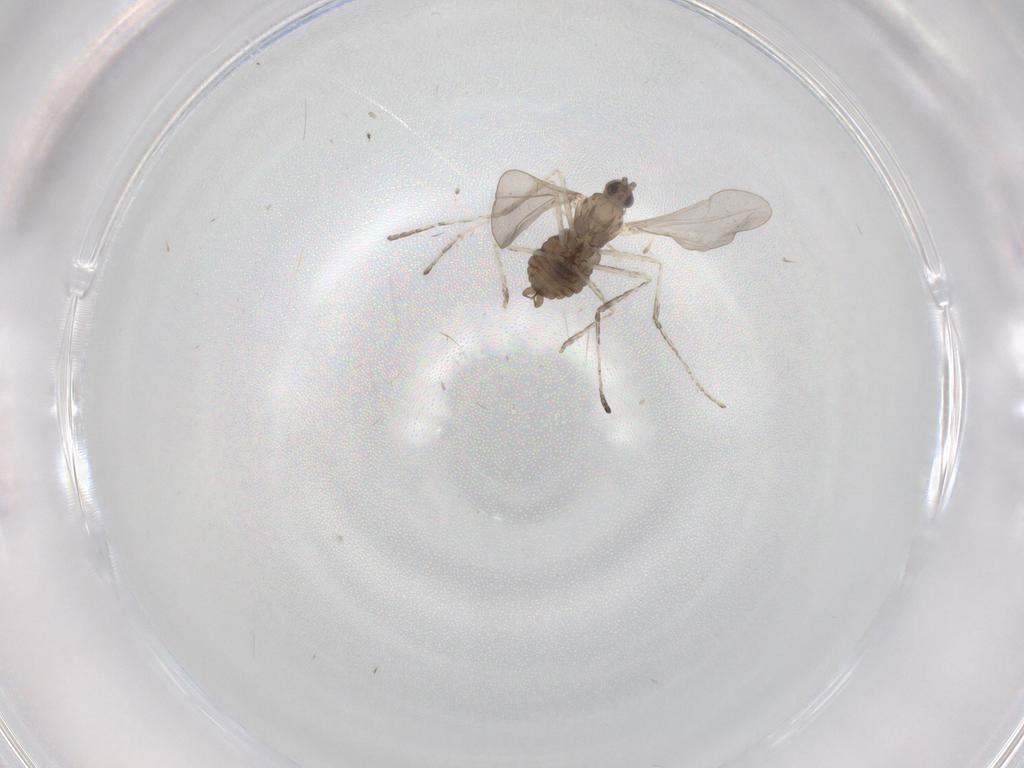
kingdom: Animalia
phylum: Arthropoda
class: Insecta
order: Diptera
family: Cecidomyiidae
